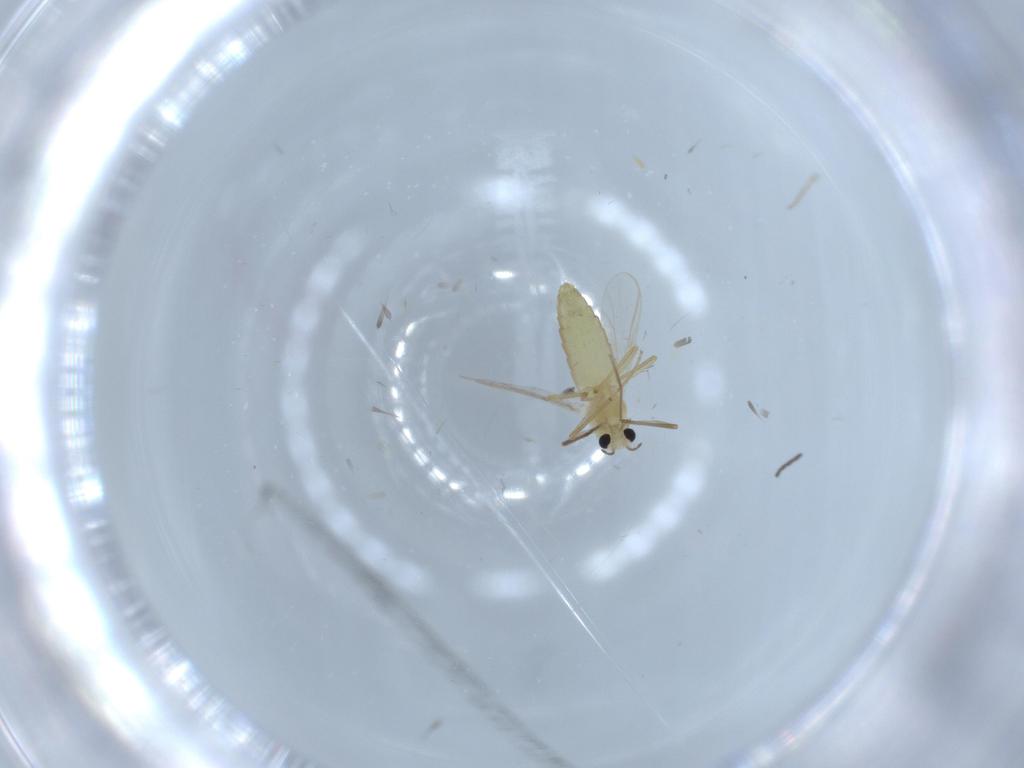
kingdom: Animalia
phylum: Arthropoda
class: Insecta
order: Diptera
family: Chironomidae
